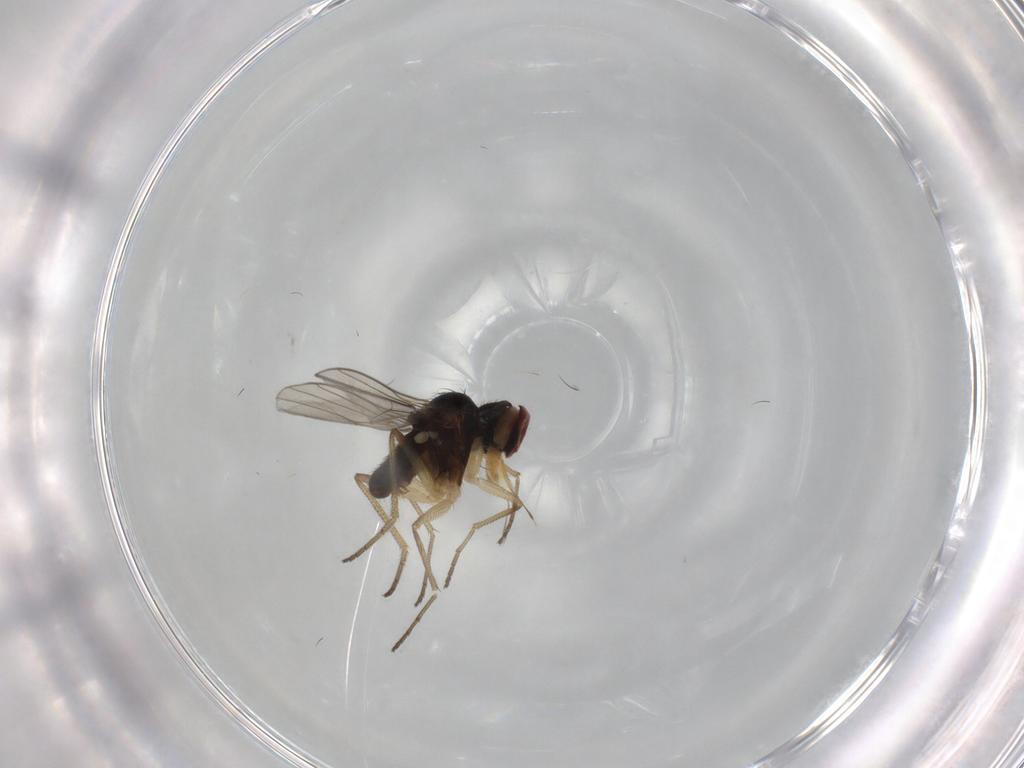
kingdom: Animalia
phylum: Arthropoda
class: Insecta
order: Diptera
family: Dolichopodidae
